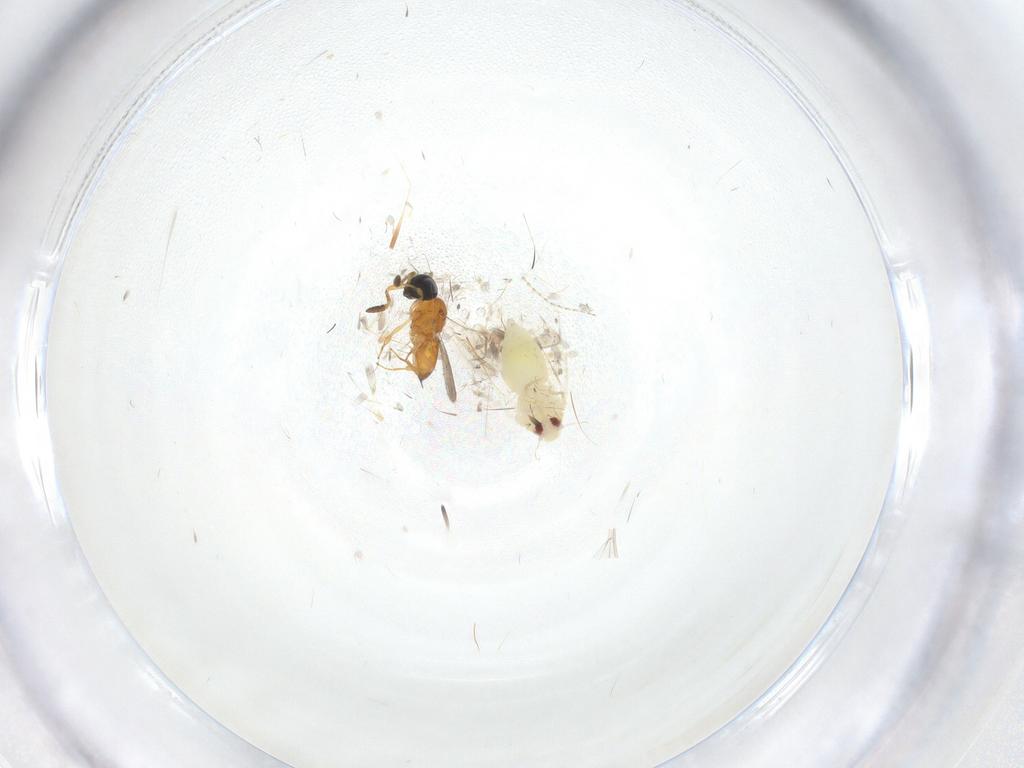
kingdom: Animalia
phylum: Arthropoda
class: Insecta
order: Hemiptera
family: Aleyrodidae
